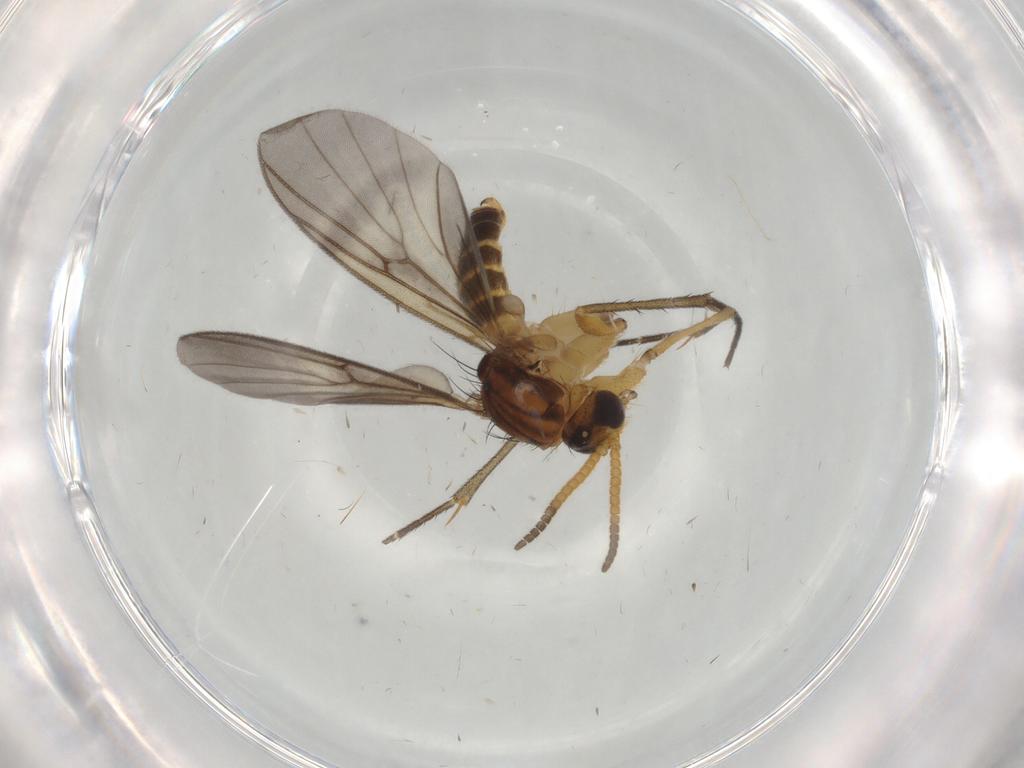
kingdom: Animalia
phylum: Arthropoda
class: Insecta
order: Diptera
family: Mycetophilidae
